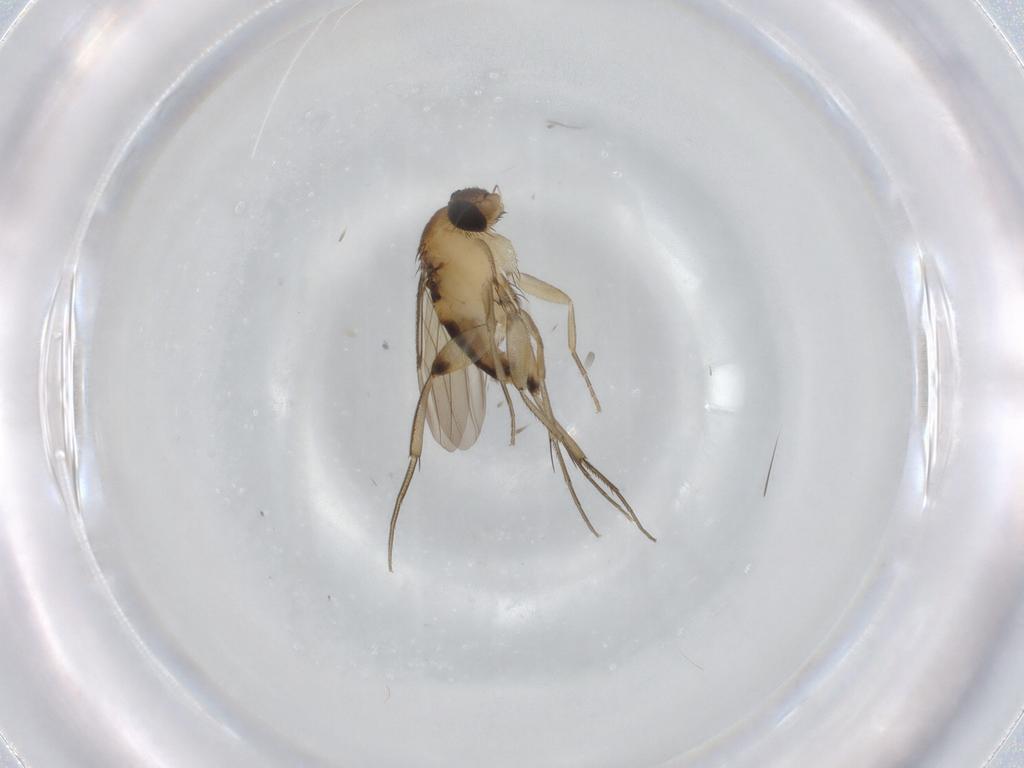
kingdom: Animalia
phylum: Arthropoda
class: Insecta
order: Diptera
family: Phoridae
